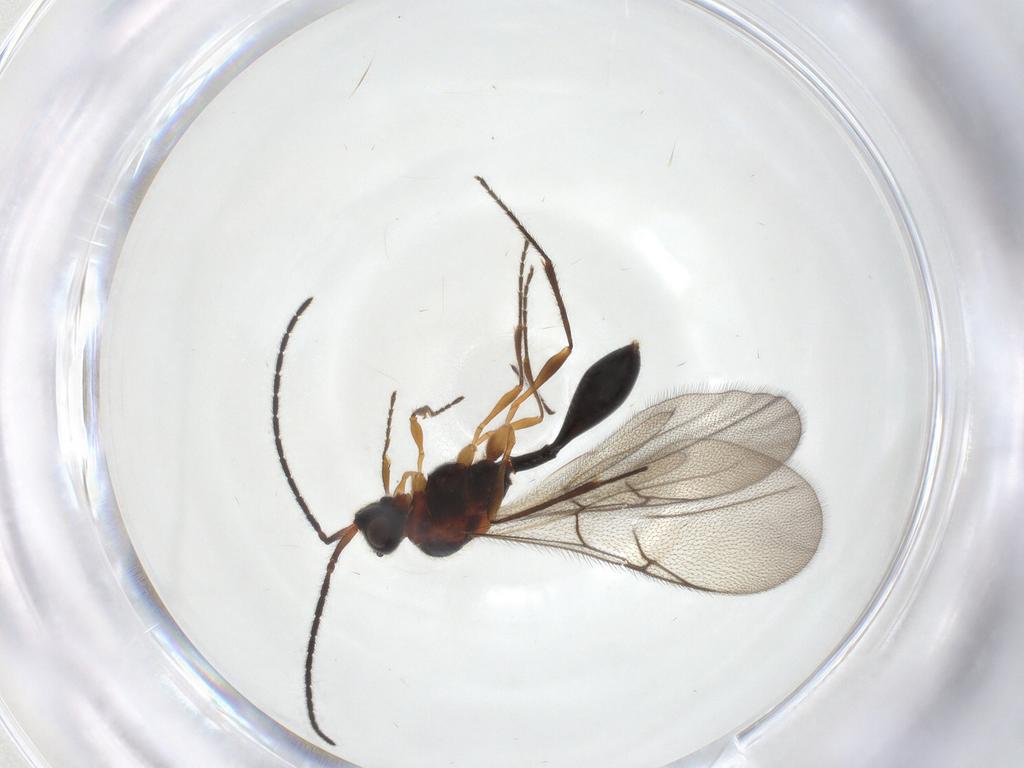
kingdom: Animalia
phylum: Arthropoda
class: Insecta
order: Hymenoptera
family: Diapriidae
